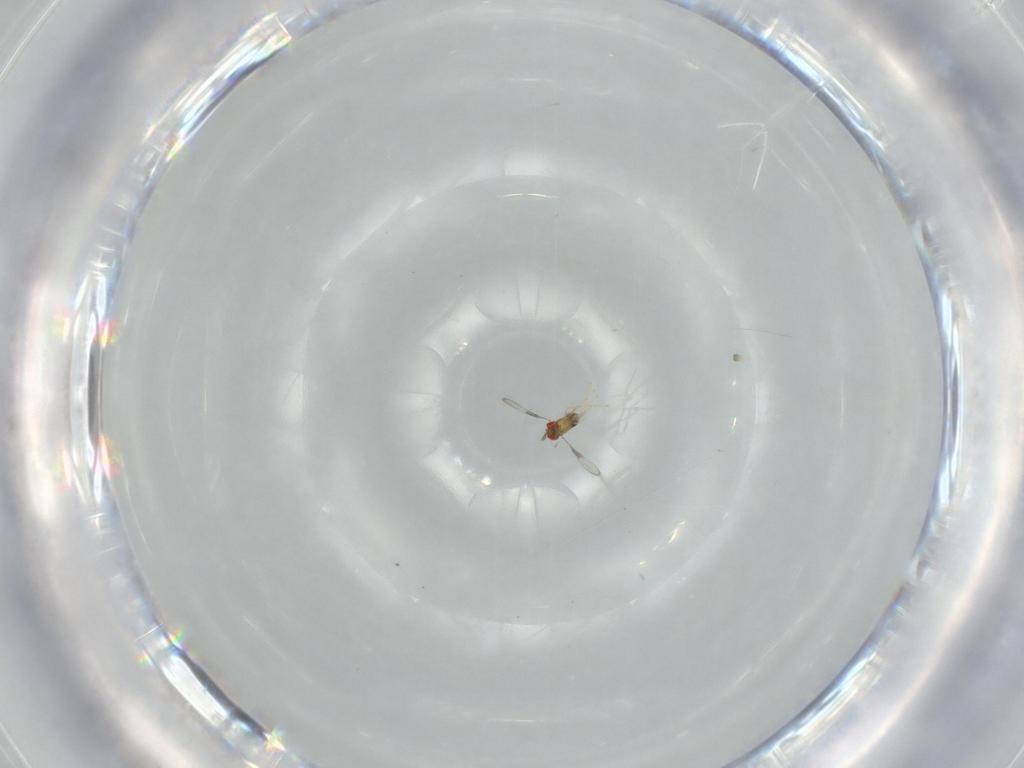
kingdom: Animalia
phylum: Arthropoda
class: Insecta
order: Hymenoptera
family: Trichogrammatidae
